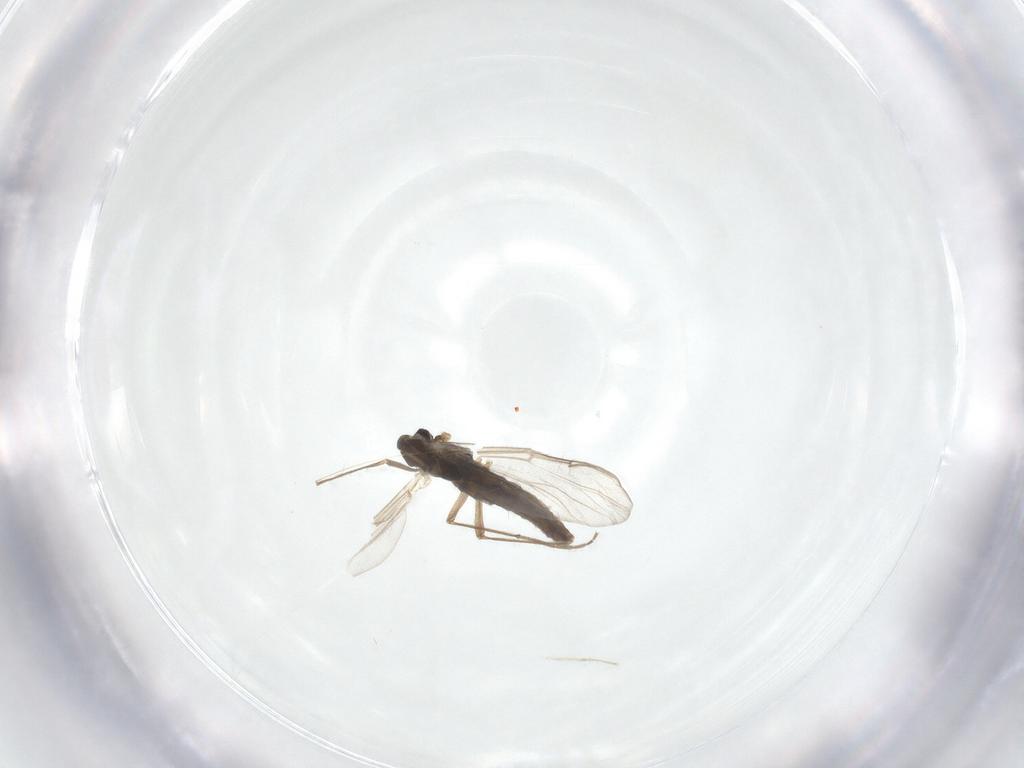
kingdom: Animalia
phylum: Arthropoda
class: Insecta
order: Diptera
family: Chironomidae
